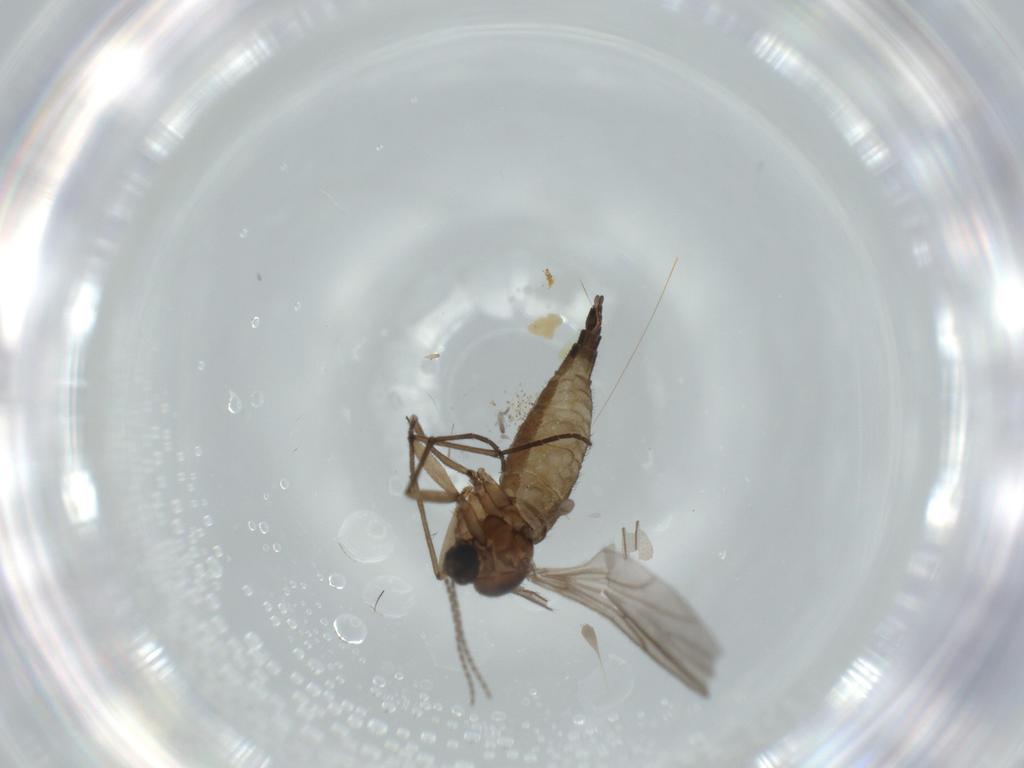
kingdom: Animalia
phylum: Arthropoda
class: Insecta
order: Diptera
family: Sciaridae
